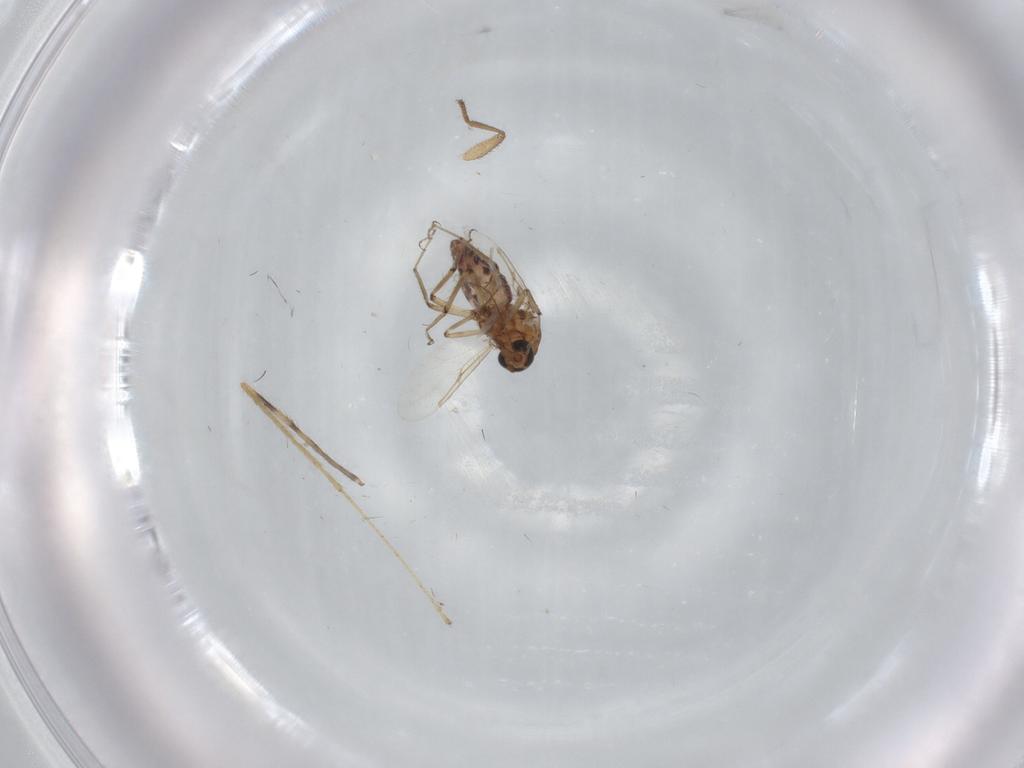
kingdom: Animalia
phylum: Arthropoda
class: Insecta
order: Diptera
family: Ceratopogonidae
